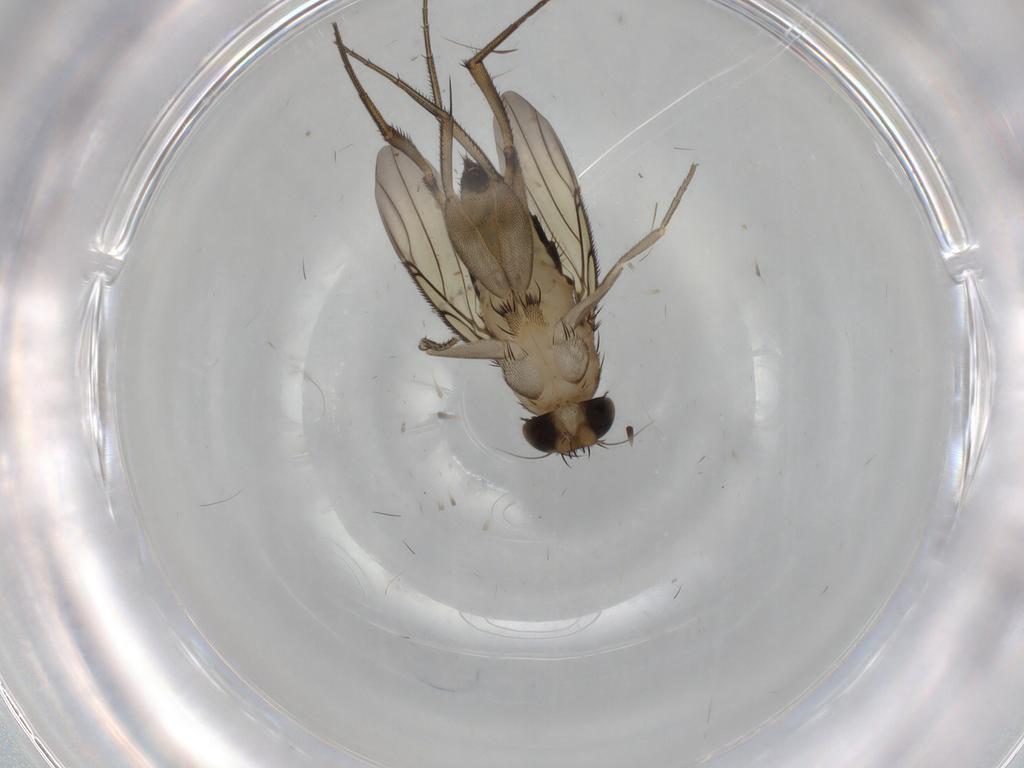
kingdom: Animalia
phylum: Arthropoda
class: Insecta
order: Diptera
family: Phoridae
